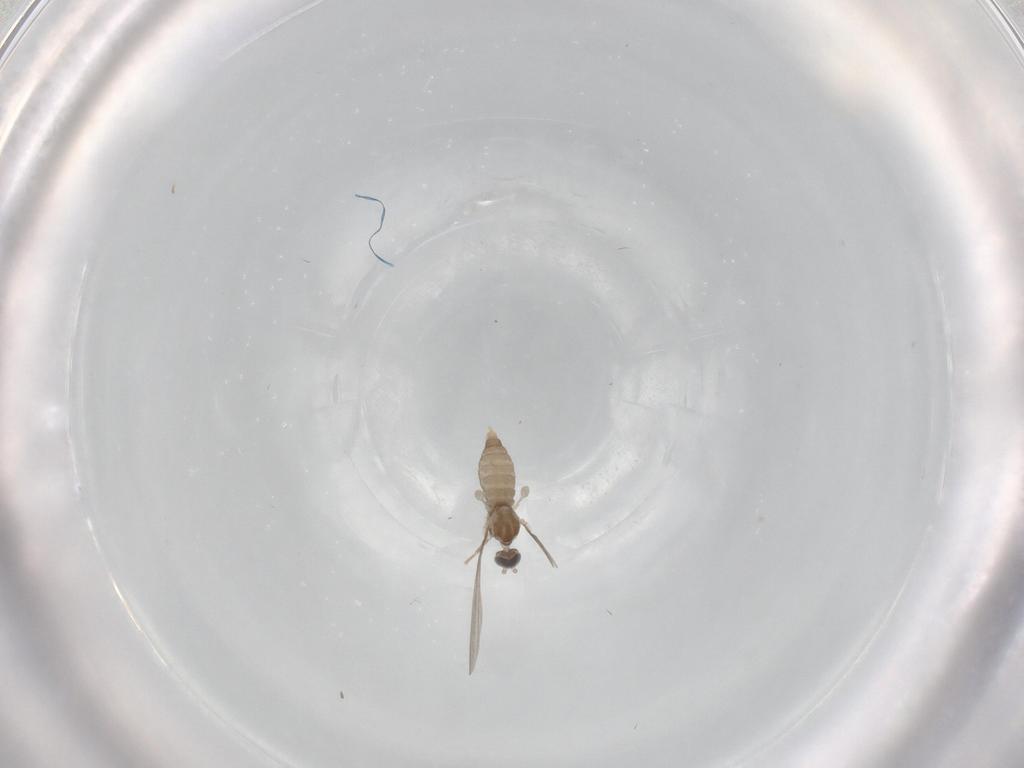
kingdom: Animalia
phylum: Arthropoda
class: Insecta
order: Diptera
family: Cecidomyiidae
